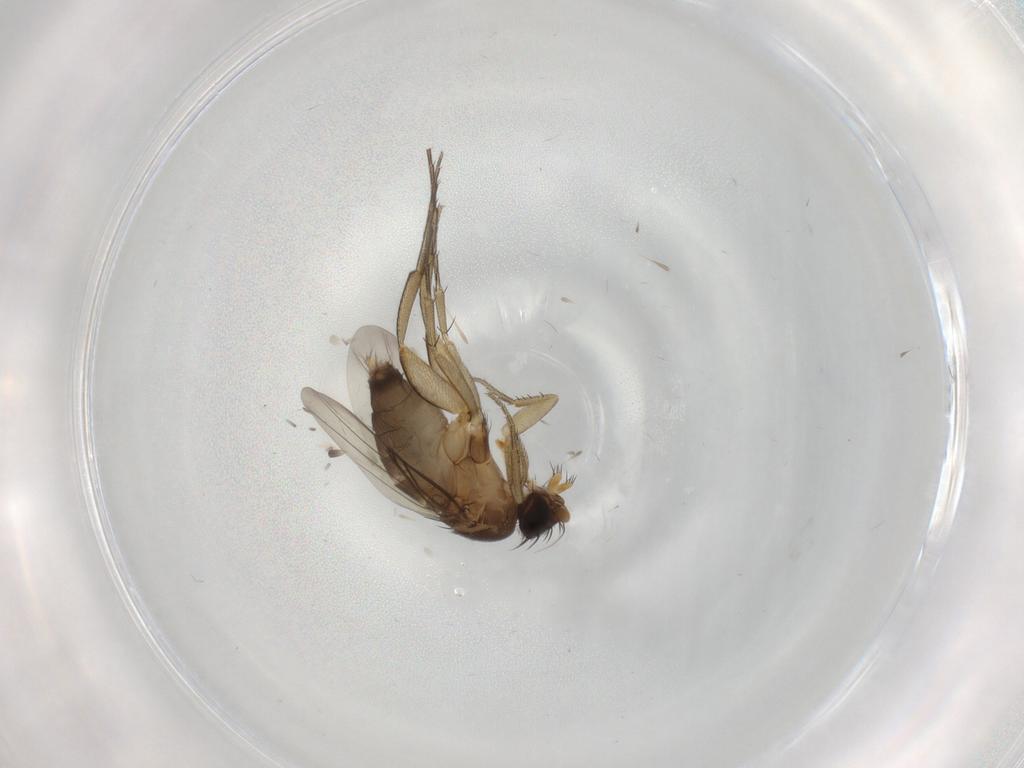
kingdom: Animalia
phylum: Arthropoda
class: Insecta
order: Diptera
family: Phoridae
